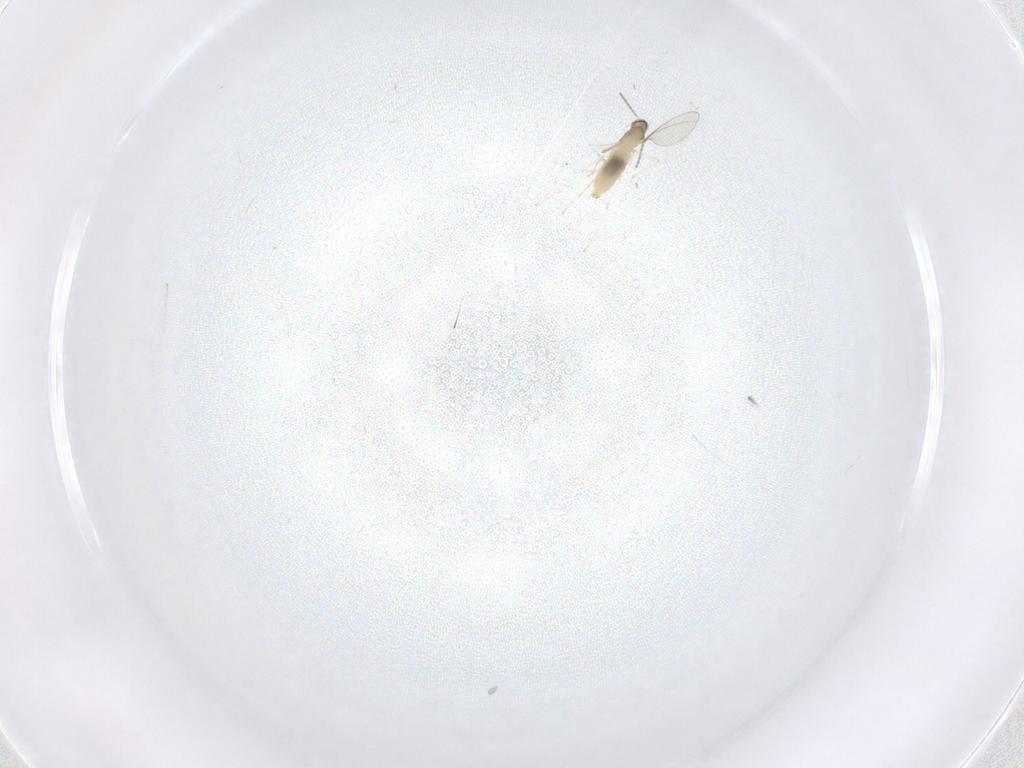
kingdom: Animalia
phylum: Arthropoda
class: Insecta
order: Diptera
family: Limoniidae
